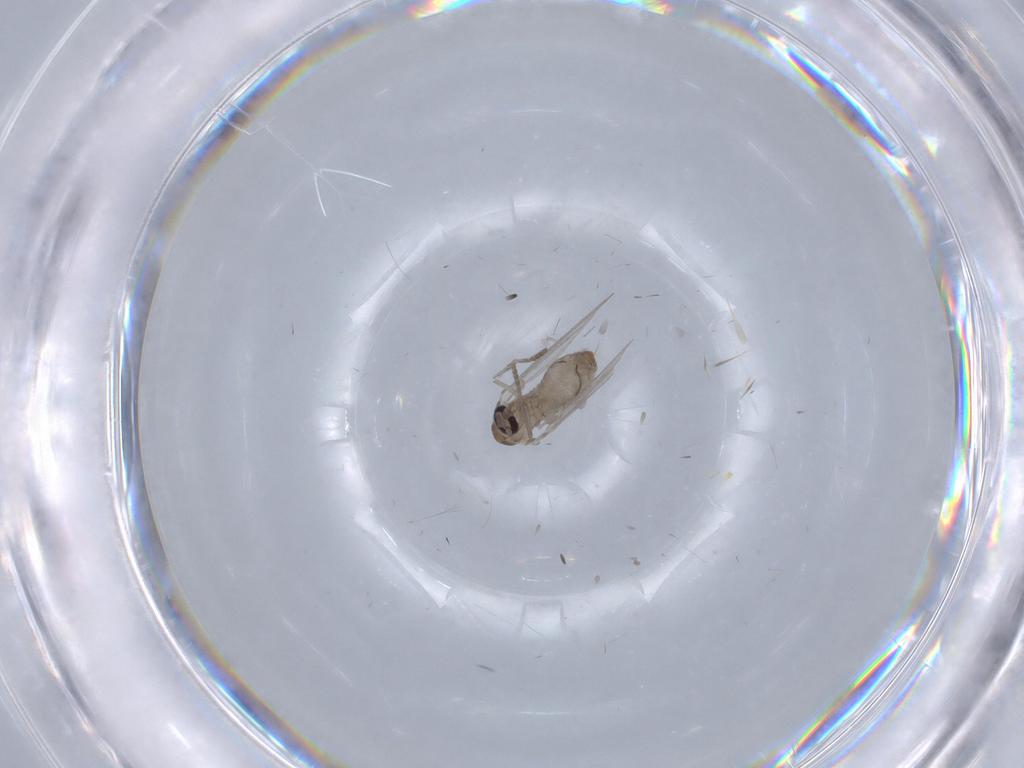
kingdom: Animalia
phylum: Arthropoda
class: Insecta
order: Diptera
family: Psychodidae
